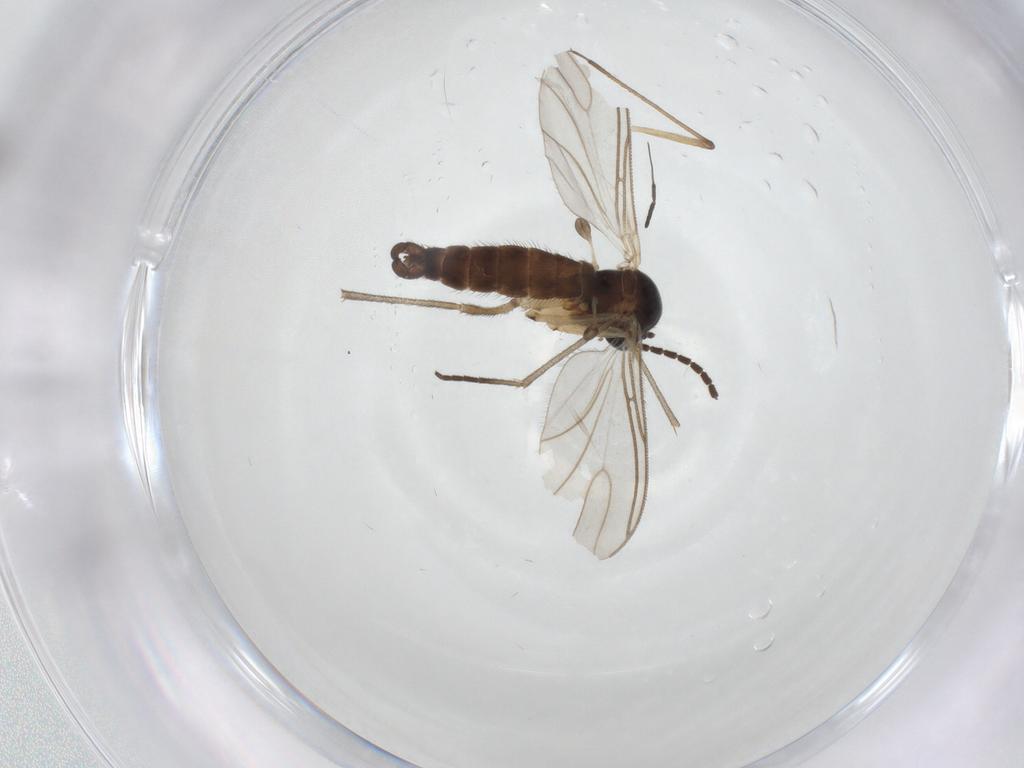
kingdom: Animalia
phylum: Arthropoda
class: Insecta
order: Diptera
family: Sciaridae
